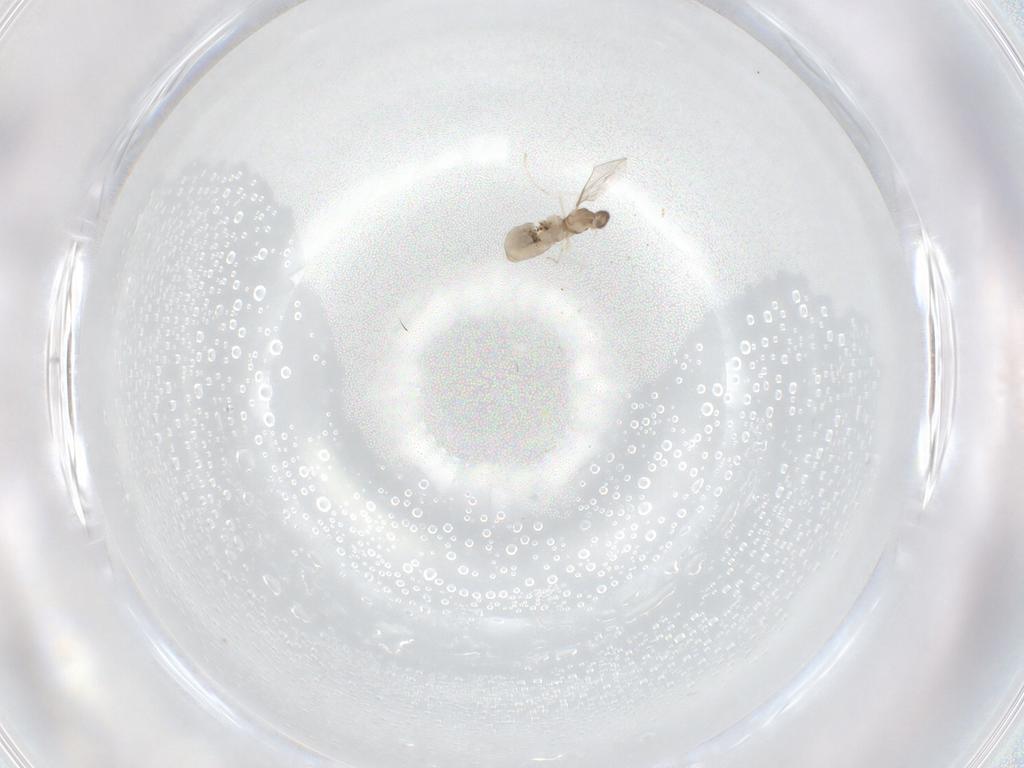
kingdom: Animalia
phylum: Arthropoda
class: Insecta
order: Diptera
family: Cecidomyiidae
